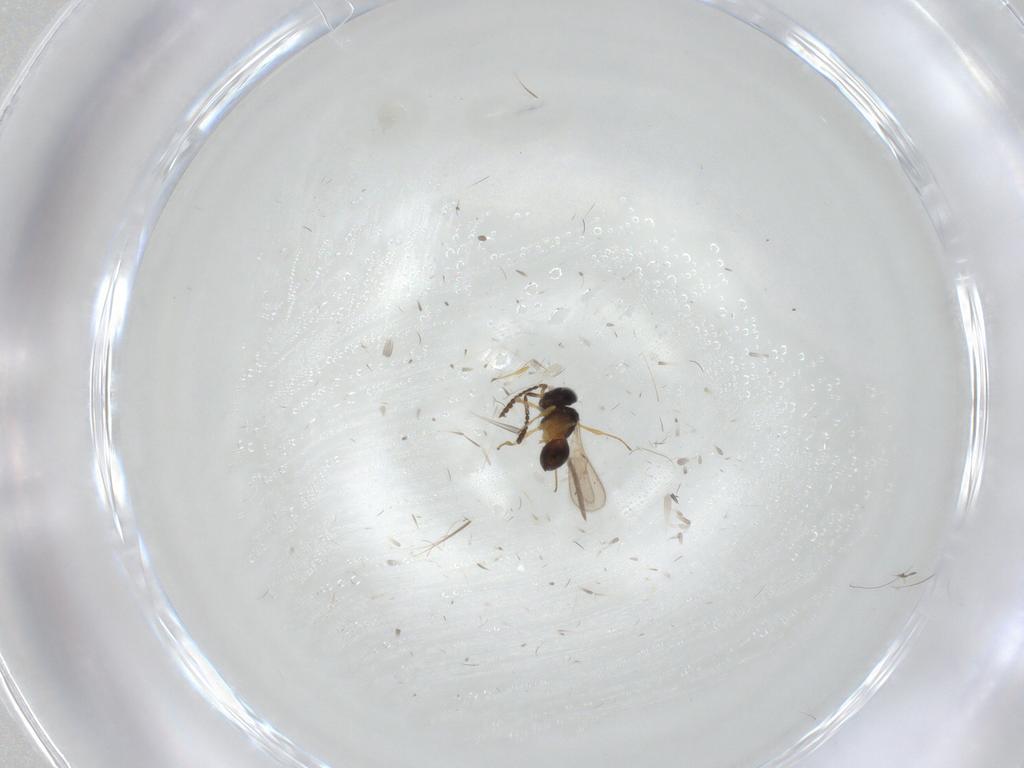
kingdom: Animalia
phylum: Arthropoda
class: Insecta
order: Hymenoptera
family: Scelionidae
